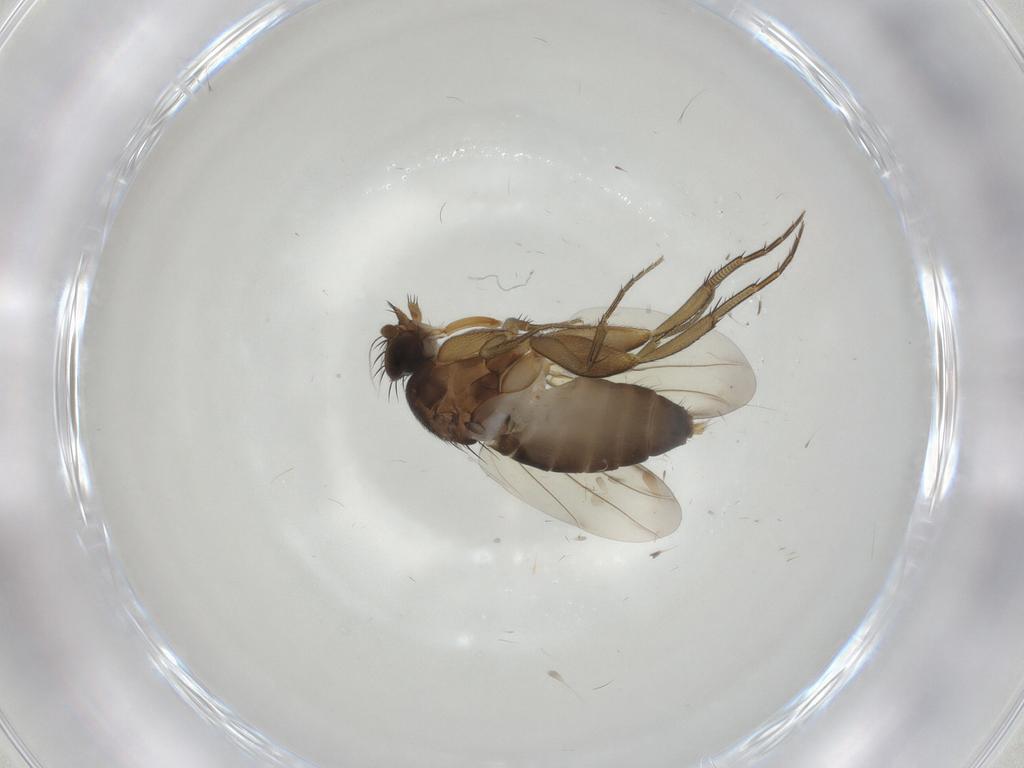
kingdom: Animalia
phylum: Arthropoda
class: Insecta
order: Diptera
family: Phoridae
